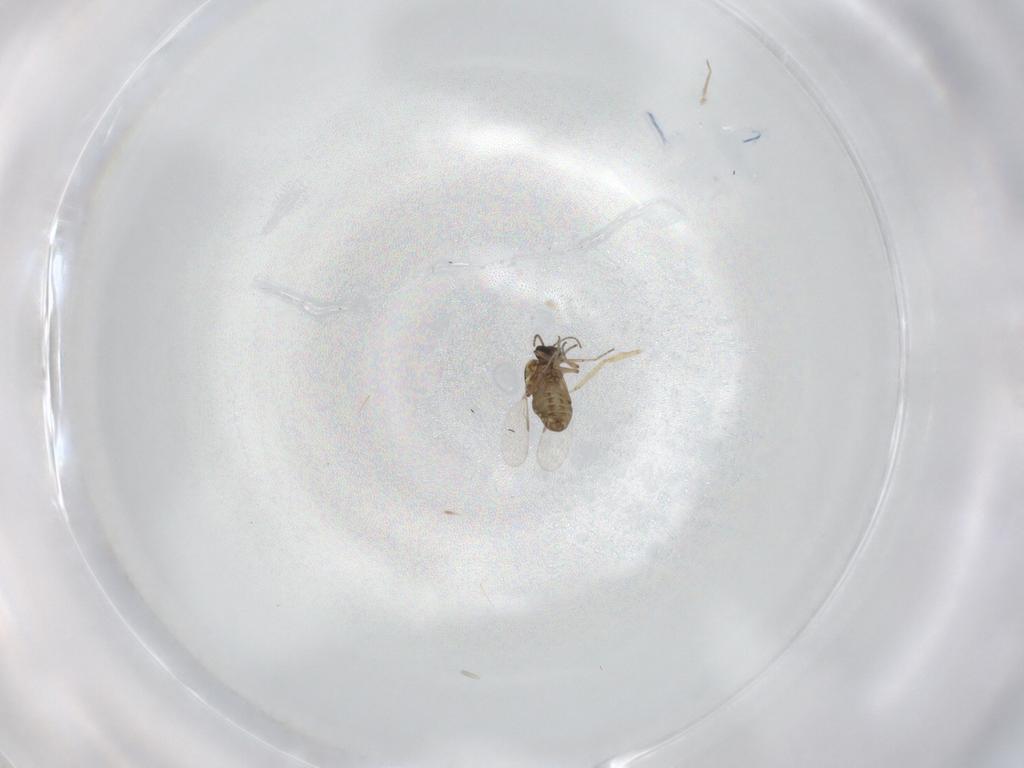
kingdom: Animalia
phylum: Arthropoda
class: Insecta
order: Diptera
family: Ceratopogonidae
